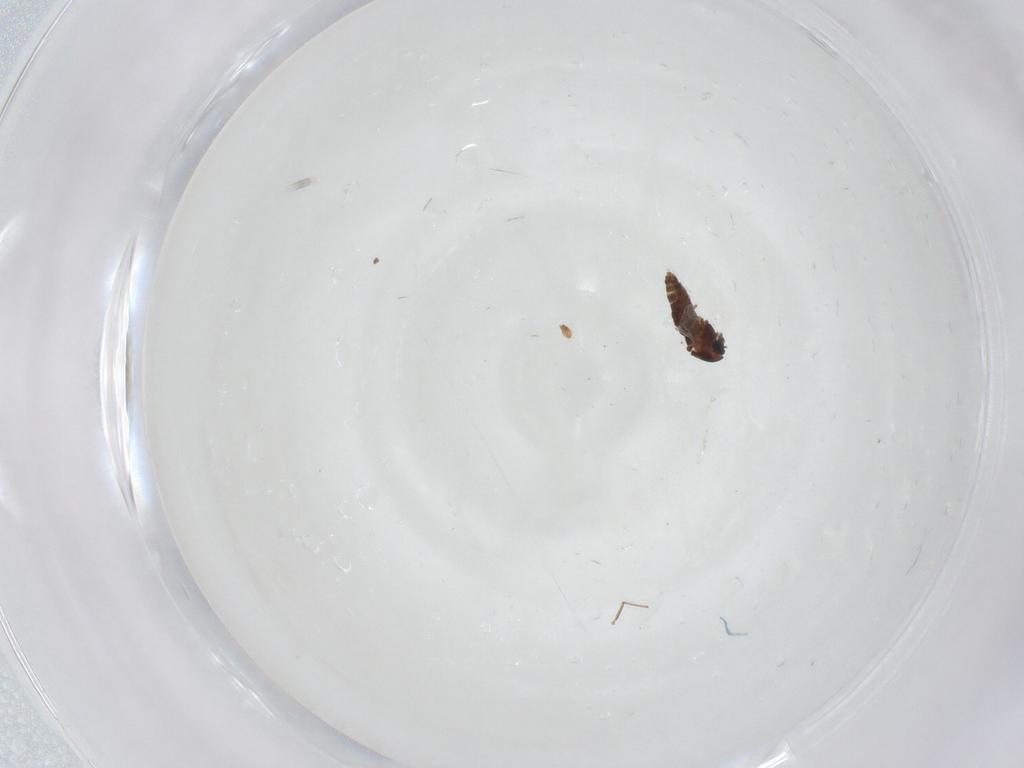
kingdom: Animalia
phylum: Arthropoda
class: Insecta
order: Diptera
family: Chironomidae
